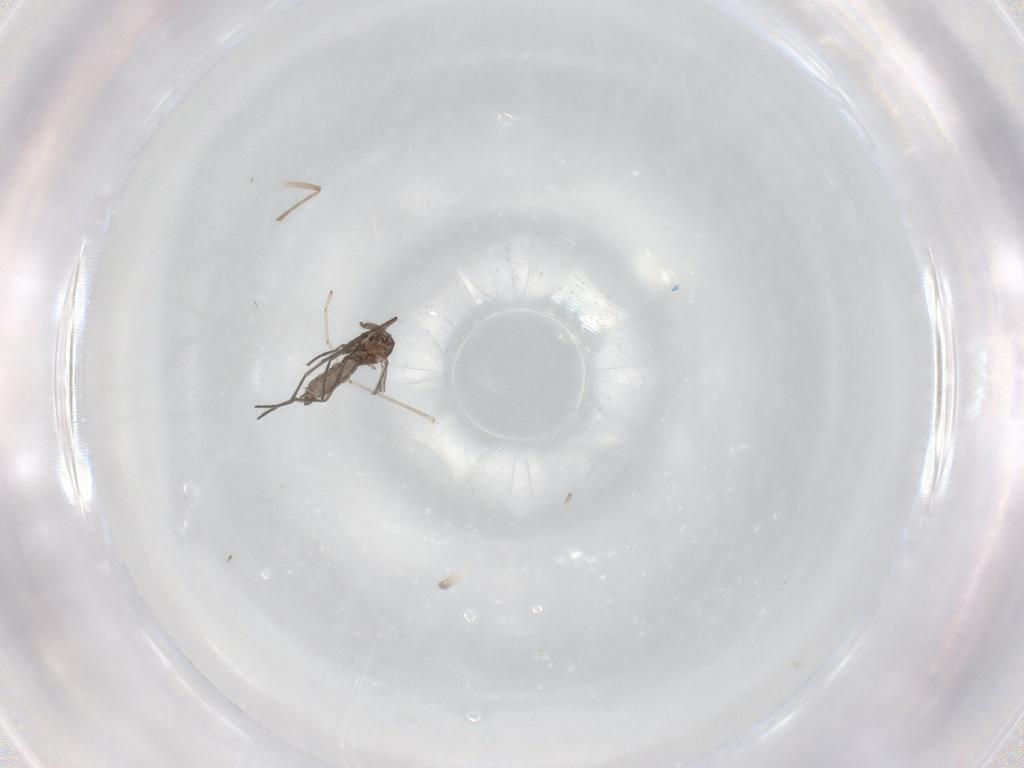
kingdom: Animalia
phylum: Arthropoda
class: Insecta
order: Diptera
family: Chironomidae
